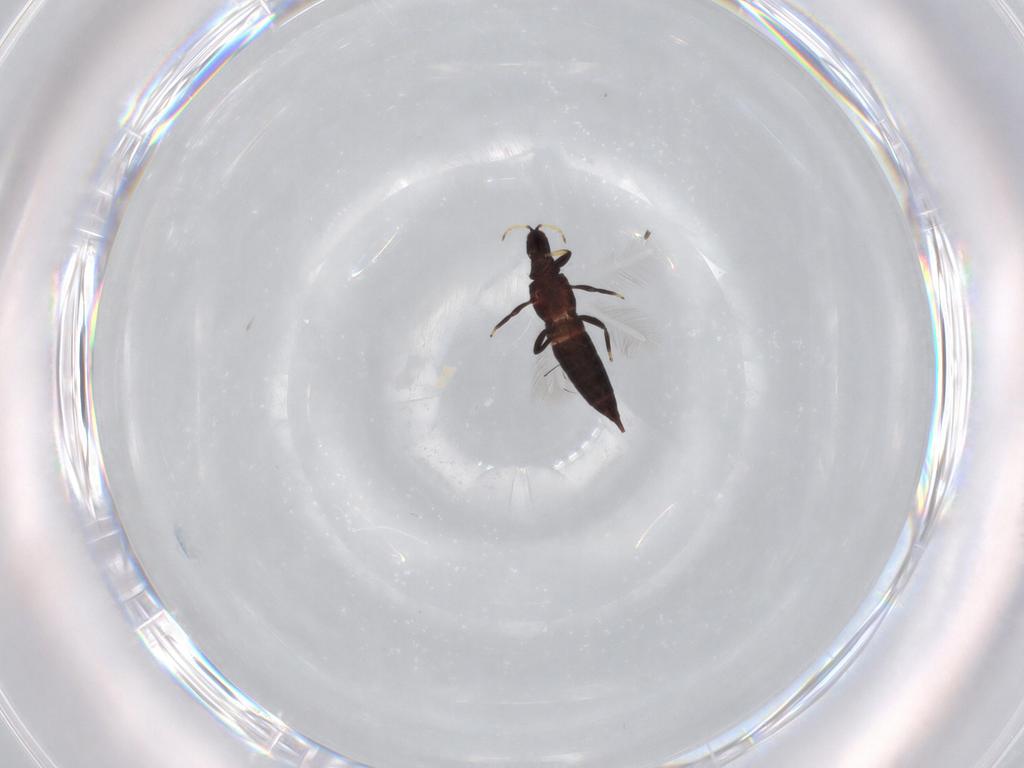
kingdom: Animalia
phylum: Arthropoda
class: Insecta
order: Thysanoptera
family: Phlaeothripidae
